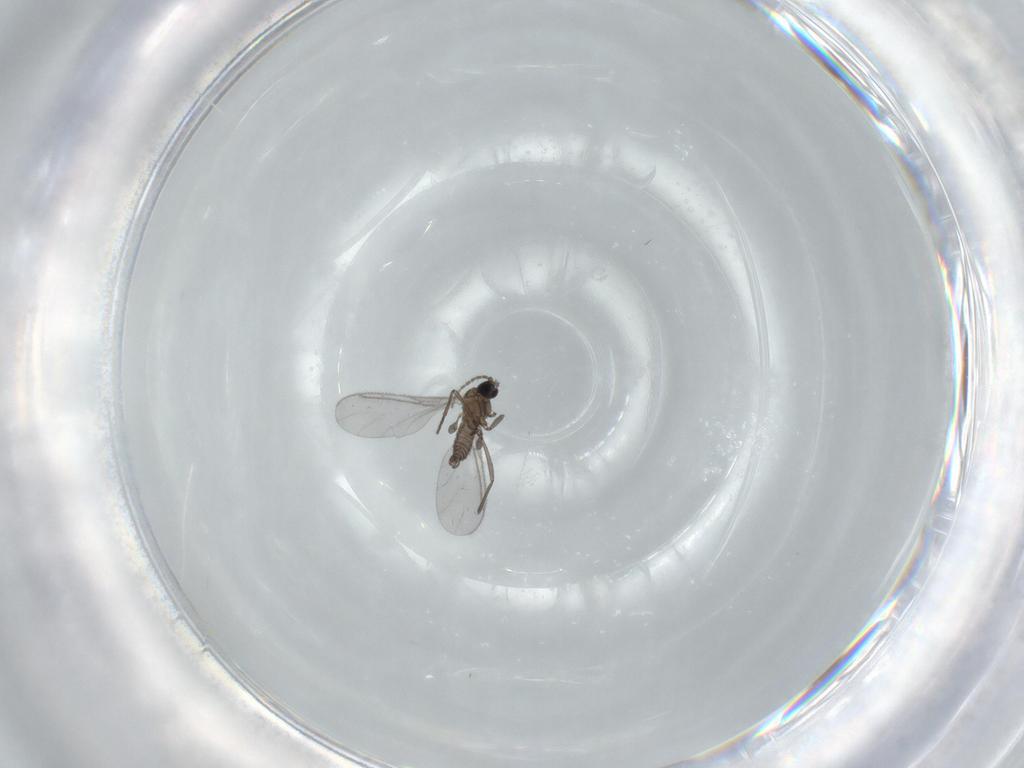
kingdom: Animalia
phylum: Arthropoda
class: Insecta
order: Diptera
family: Sciaridae
